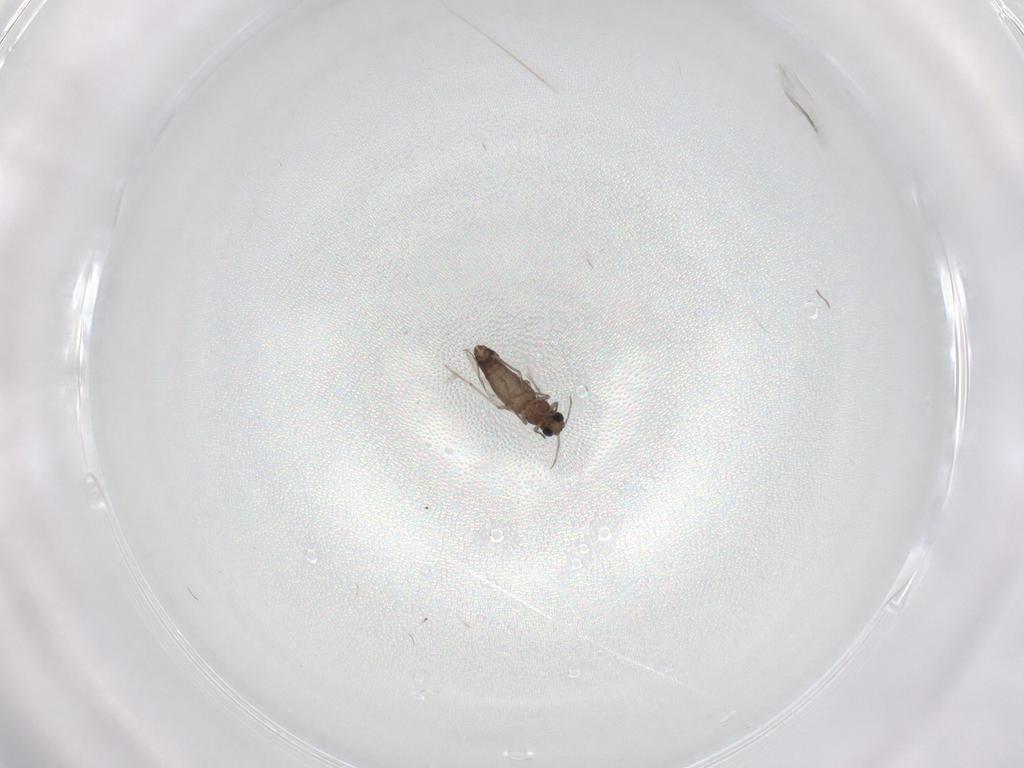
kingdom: Animalia
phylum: Arthropoda
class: Insecta
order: Diptera
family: Chironomidae
